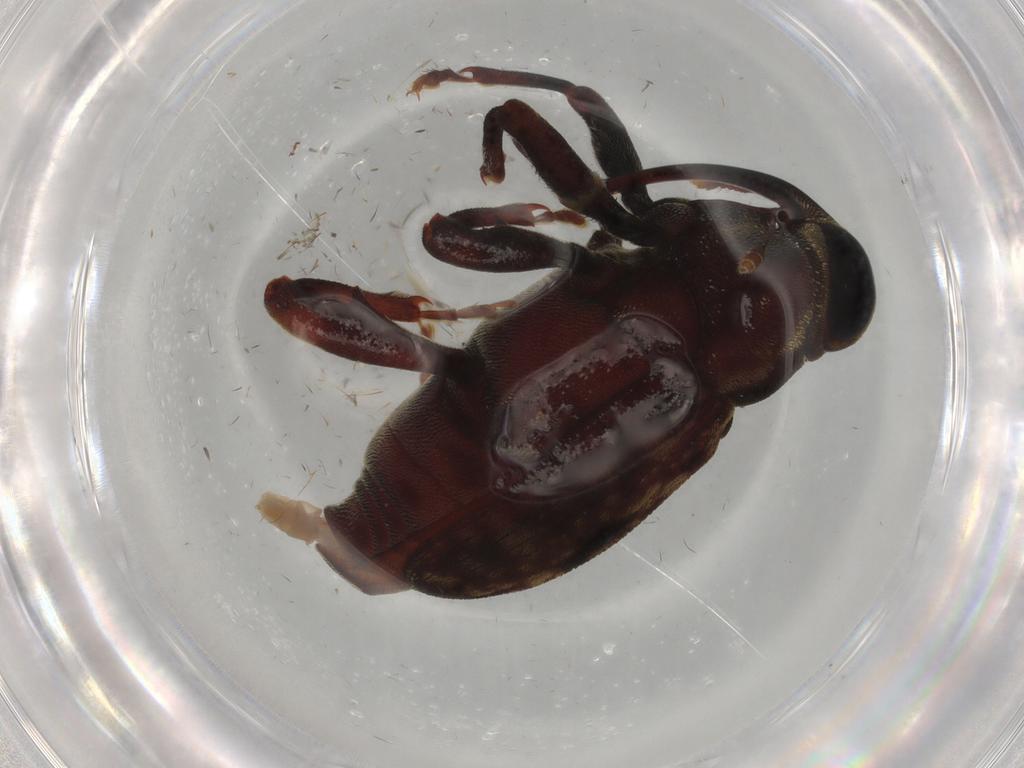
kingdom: Animalia
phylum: Arthropoda
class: Insecta
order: Coleoptera
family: Curculionidae
